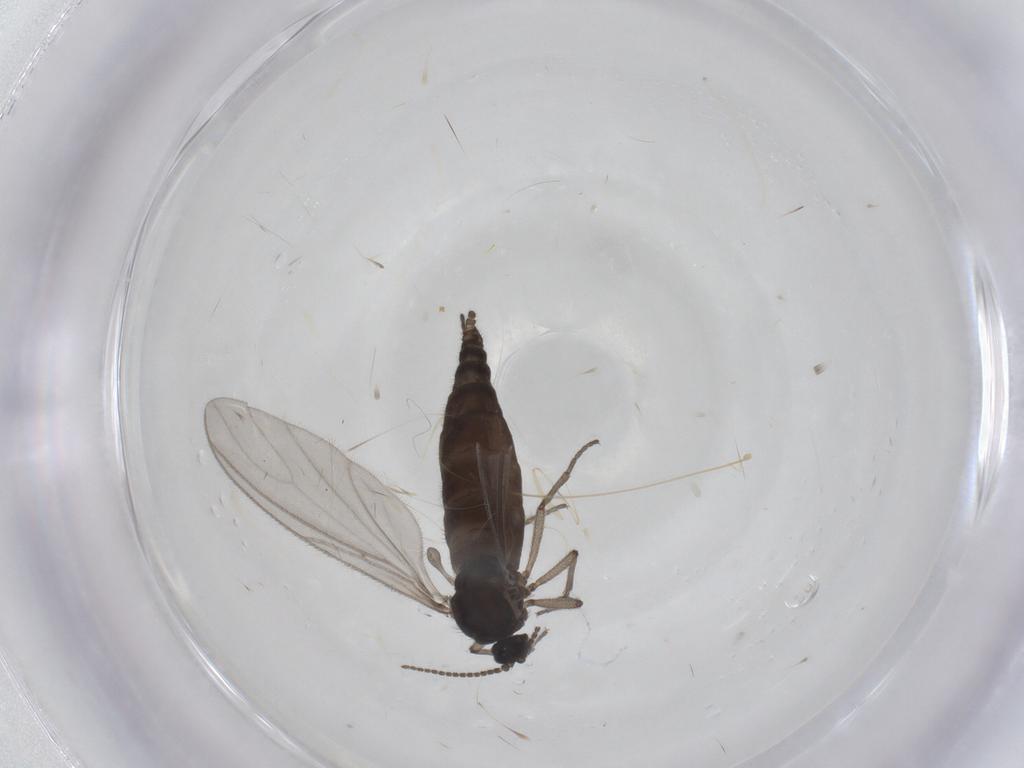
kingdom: Animalia
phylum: Arthropoda
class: Insecta
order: Diptera
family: Sciaridae
